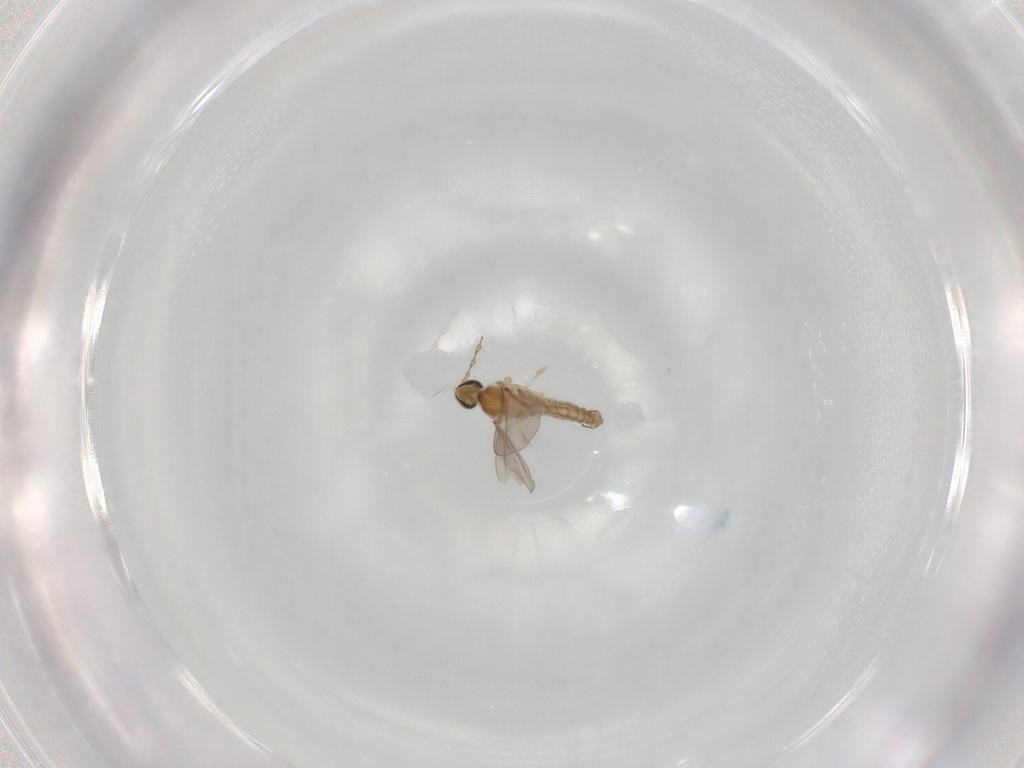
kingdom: Animalia
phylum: Arthropoda
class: Insecta
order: Diptera
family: Cecidomyiidae
